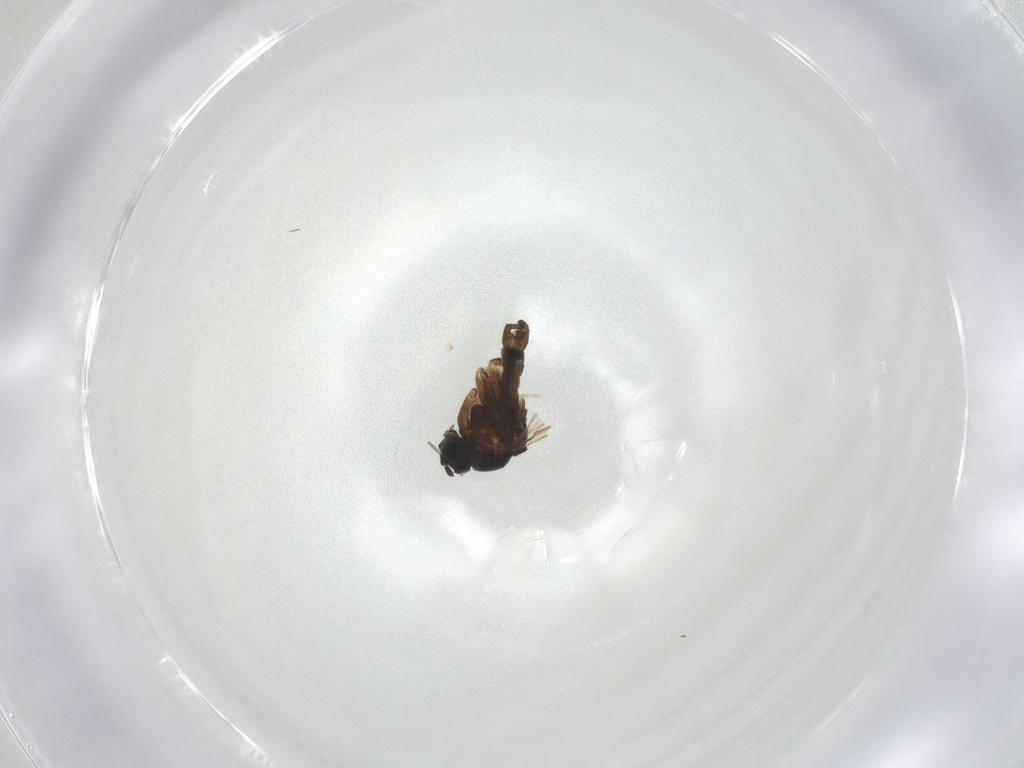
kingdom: Animalia
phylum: Arthropoda
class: Insecta
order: Diptera
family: Sciaridae
